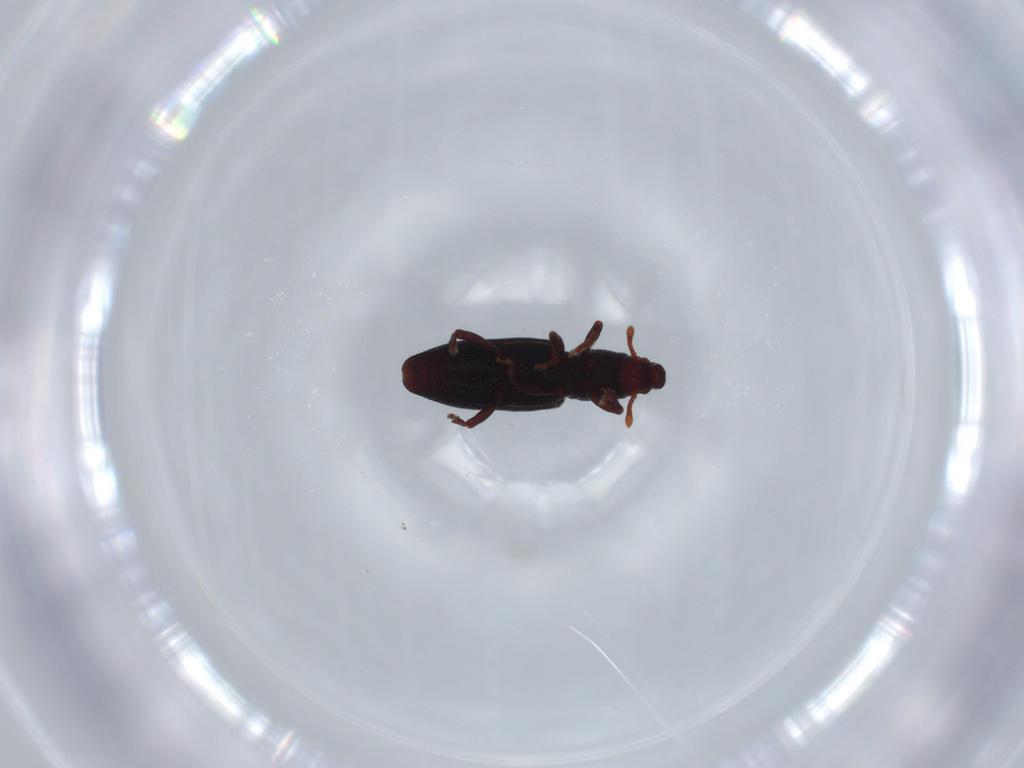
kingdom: Animalia
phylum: Arthropoda
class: Insecta
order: Coleoptera
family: Curculionidae
